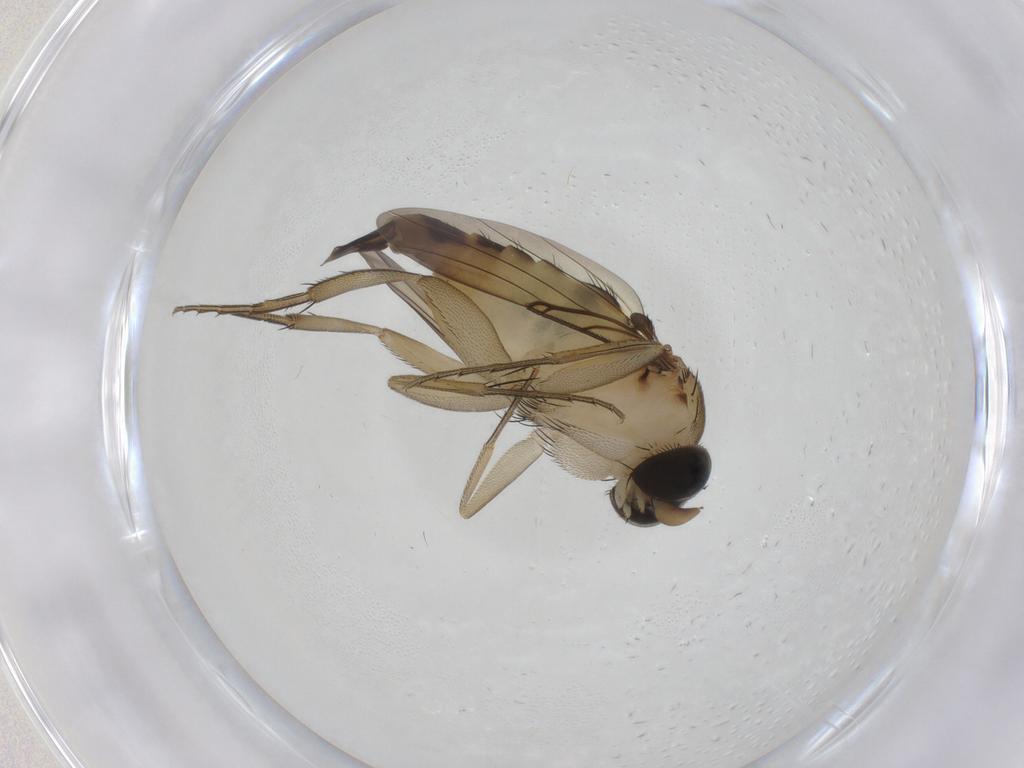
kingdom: Animalia
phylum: Arthropoda
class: Insecta
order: Diptera
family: Phoridae
